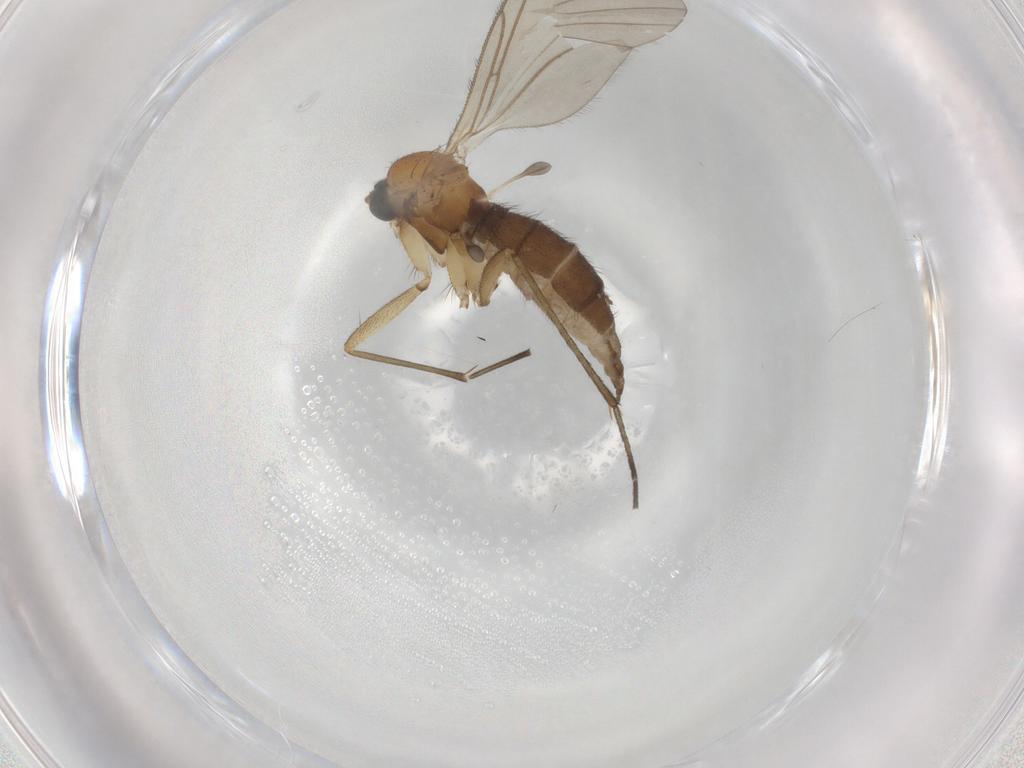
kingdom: Animalia
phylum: Arthropoda
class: Insecta
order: Diptera
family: Sciaridae
